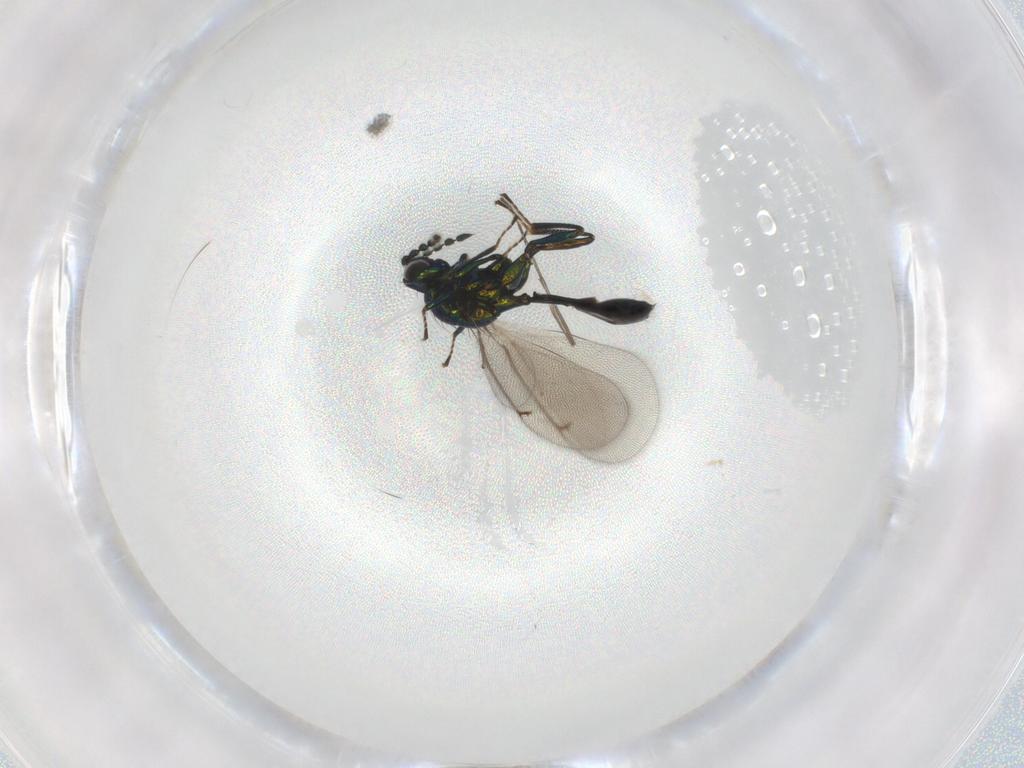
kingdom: Animalia
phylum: Arthropoda
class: Insecta
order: Hymenoptera
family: Eulophidae
